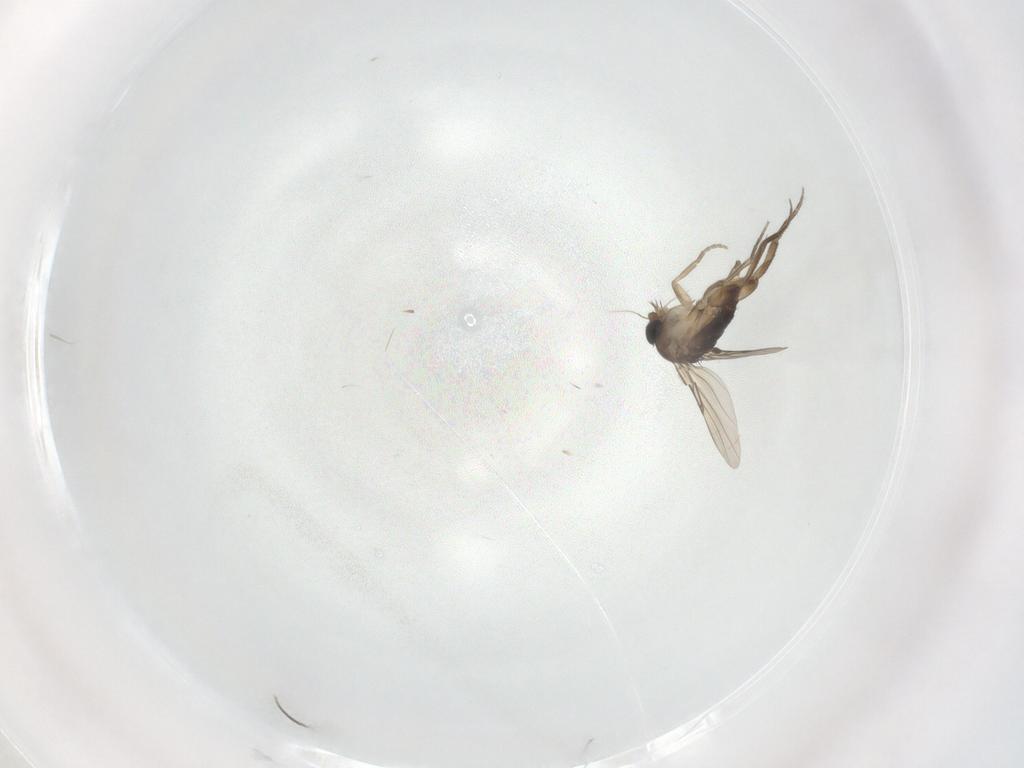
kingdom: Animalia
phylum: Arthropoda
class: Insecta
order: Diptera
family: Phoridae
